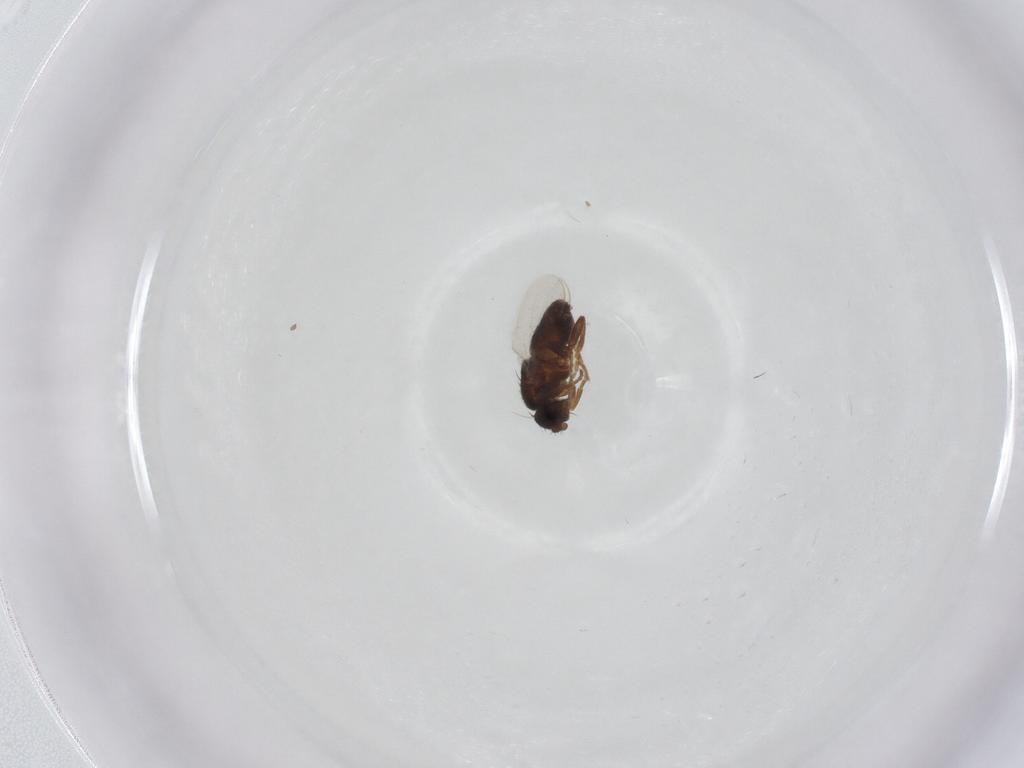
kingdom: Animalia
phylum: Arthropoda
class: Insecta
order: Diptera
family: Sphaeroceridae
